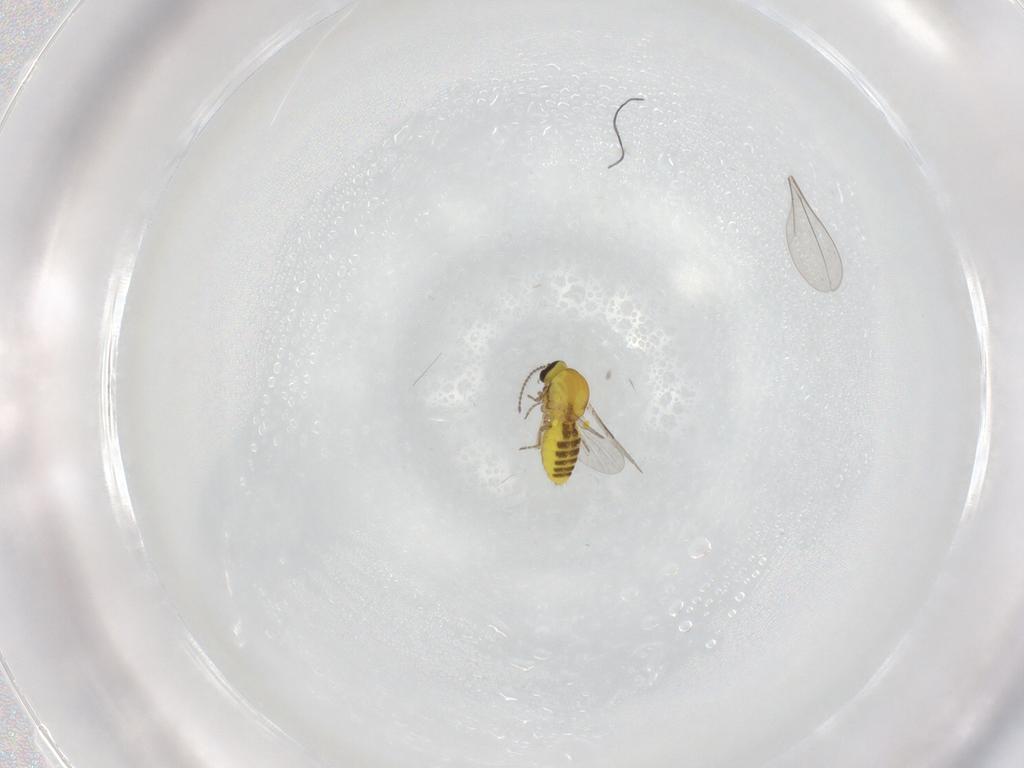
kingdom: Animalia
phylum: Arthropoda
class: Insecta
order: Diptera
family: Ceratopogonidae
